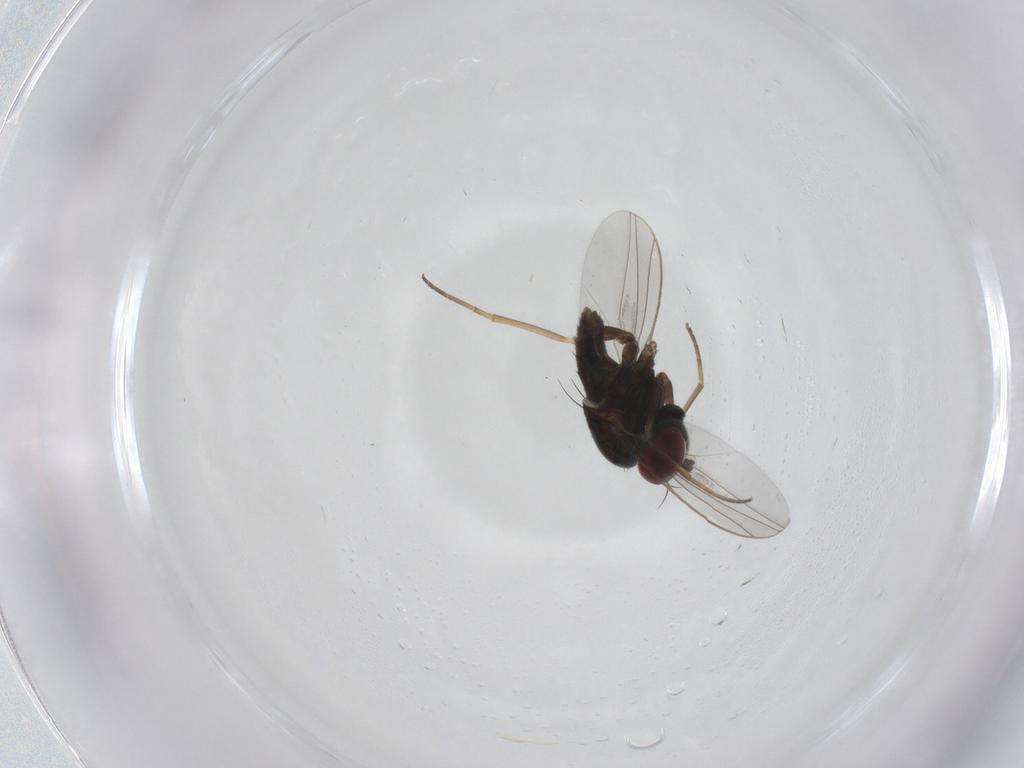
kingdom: Animalia
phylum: Arthropoda
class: Insecta
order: Diptera
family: Dolichopodidae
